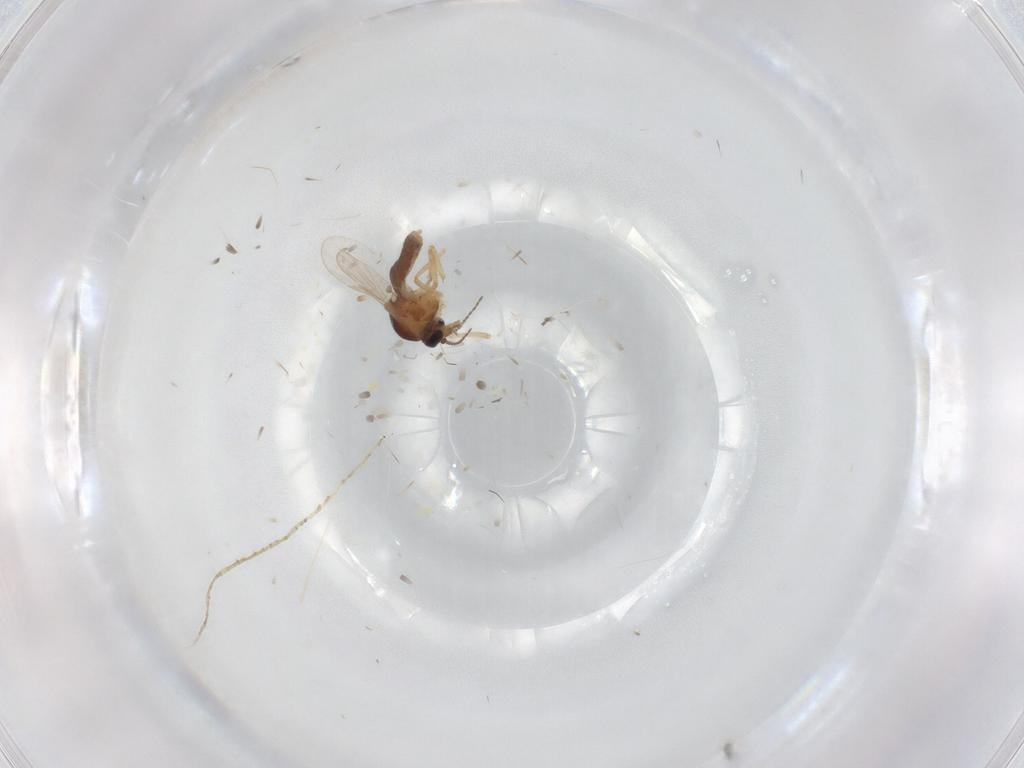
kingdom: Animalia
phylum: Arthropoda
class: Insecta
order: Diptera
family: Ceratopogonidae
